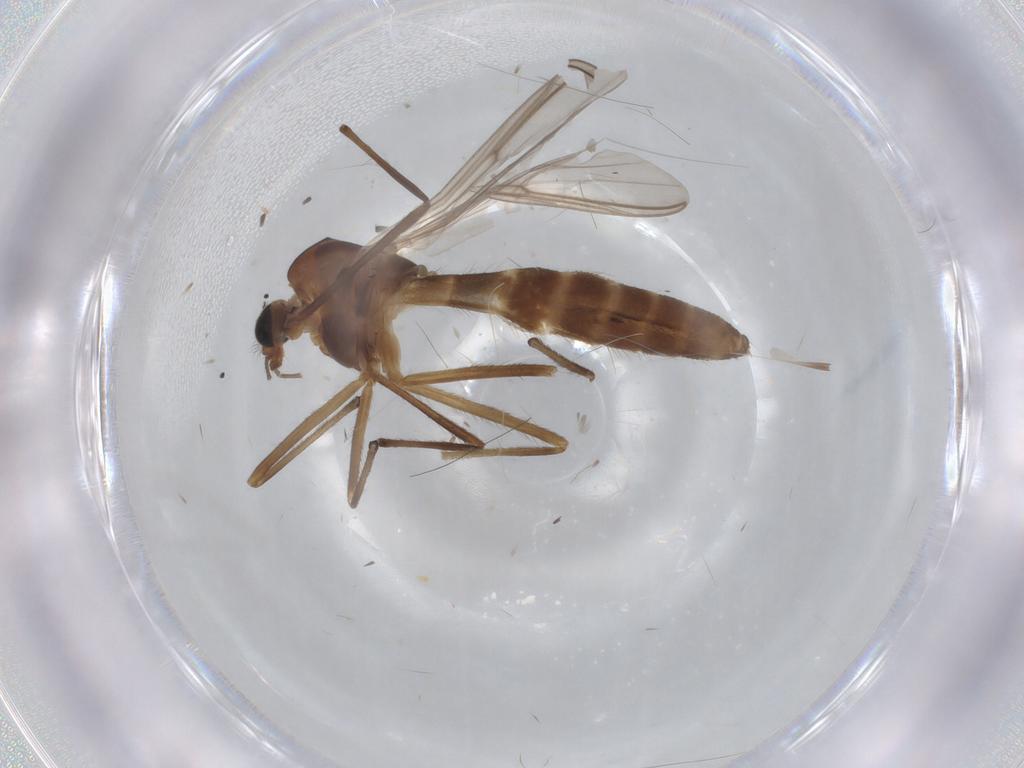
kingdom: Animalia
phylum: Arthropoda
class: Insecta
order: Diptera
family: Chironomidae
